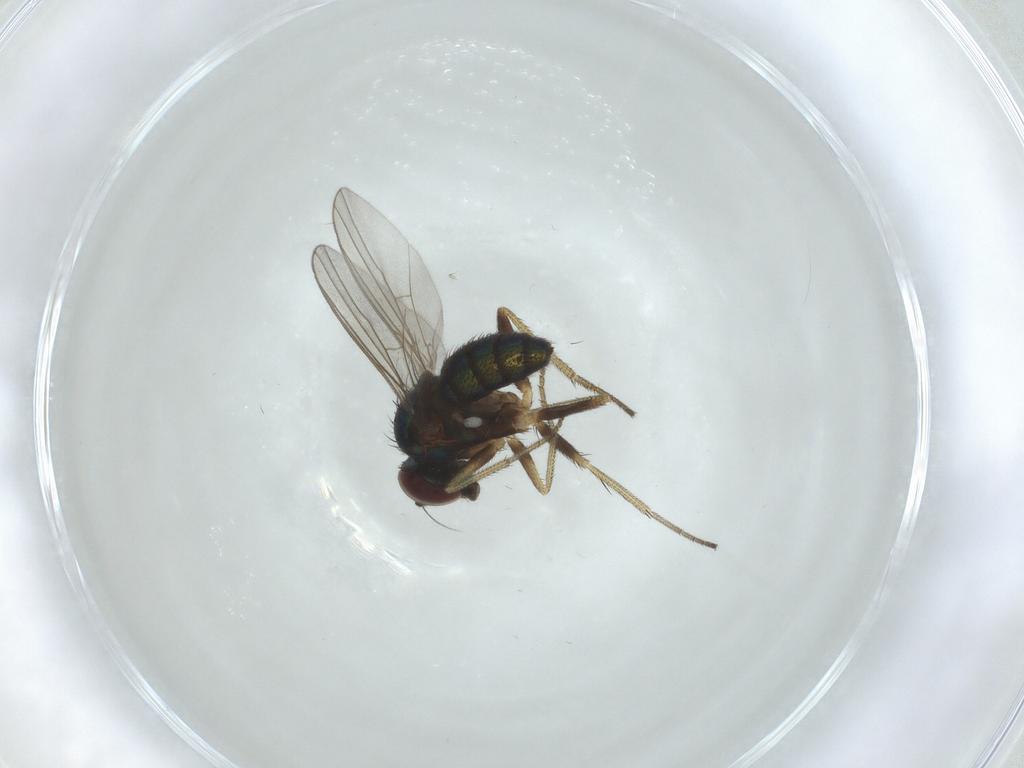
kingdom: Animalia
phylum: Arthropoda
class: Insecta
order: Diptera
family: Dolichopodidae
